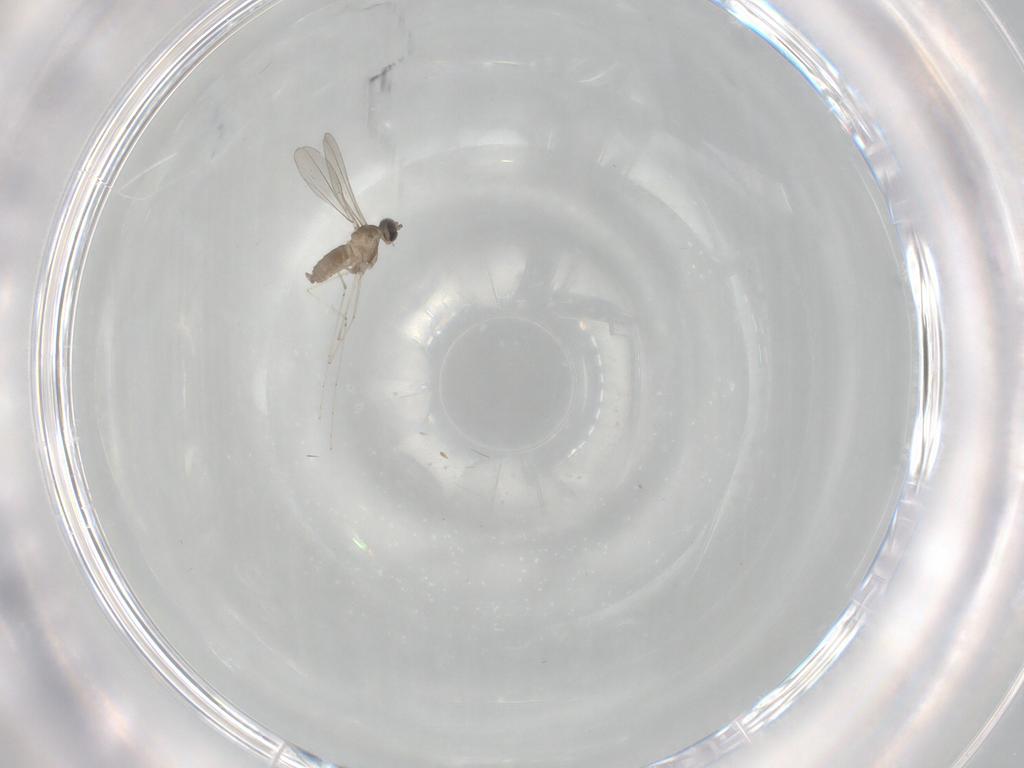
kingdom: Animalia
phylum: Arthropoda
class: Insecta
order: Diptera
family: Cecidomyiidae
